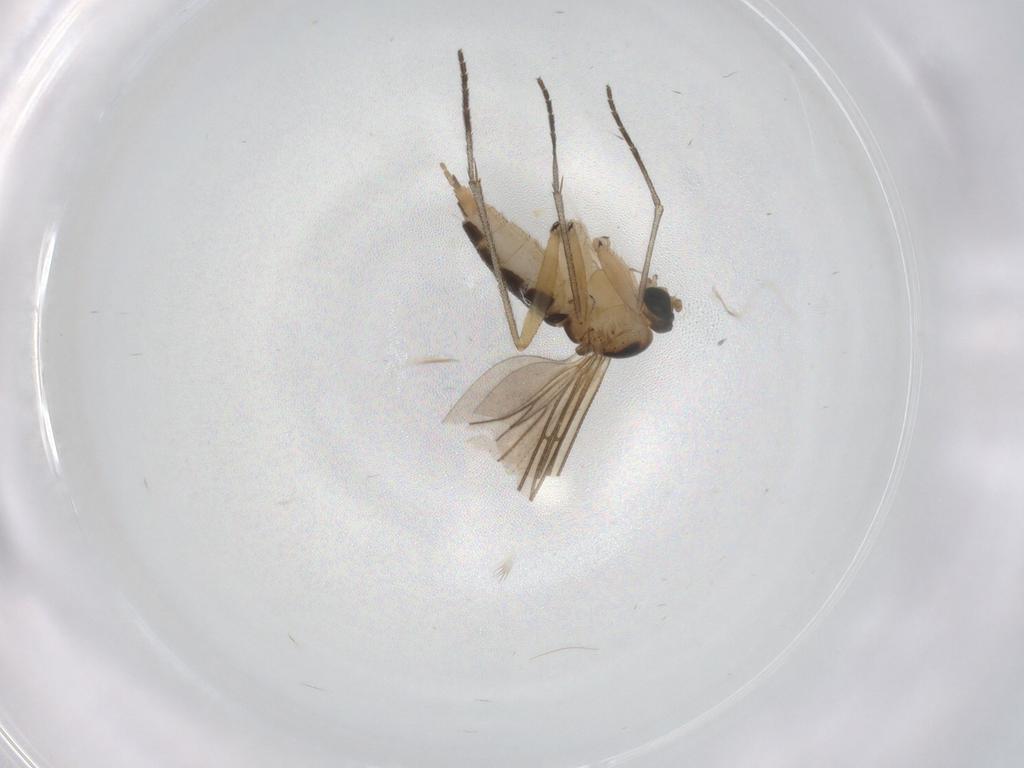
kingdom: Animalia
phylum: Arthropoda
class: Insecta
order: Diptera
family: Sciaridae
